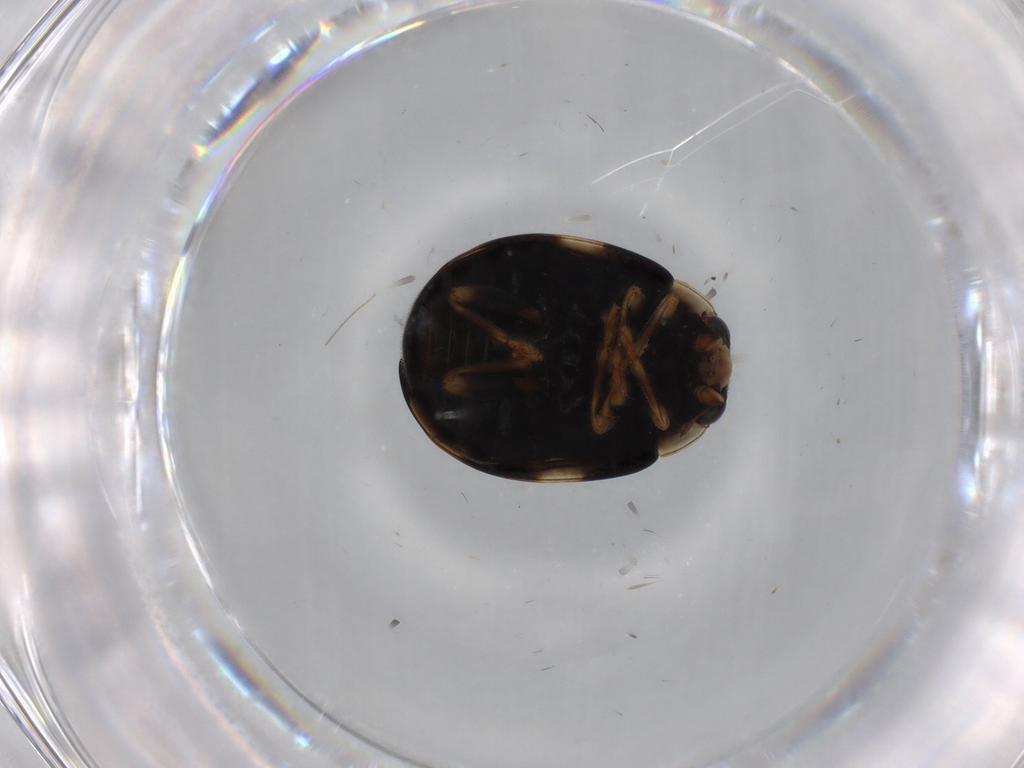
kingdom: Animalia
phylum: Arthropoda
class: Insecta
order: Coleoptera
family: Coccinellidae
